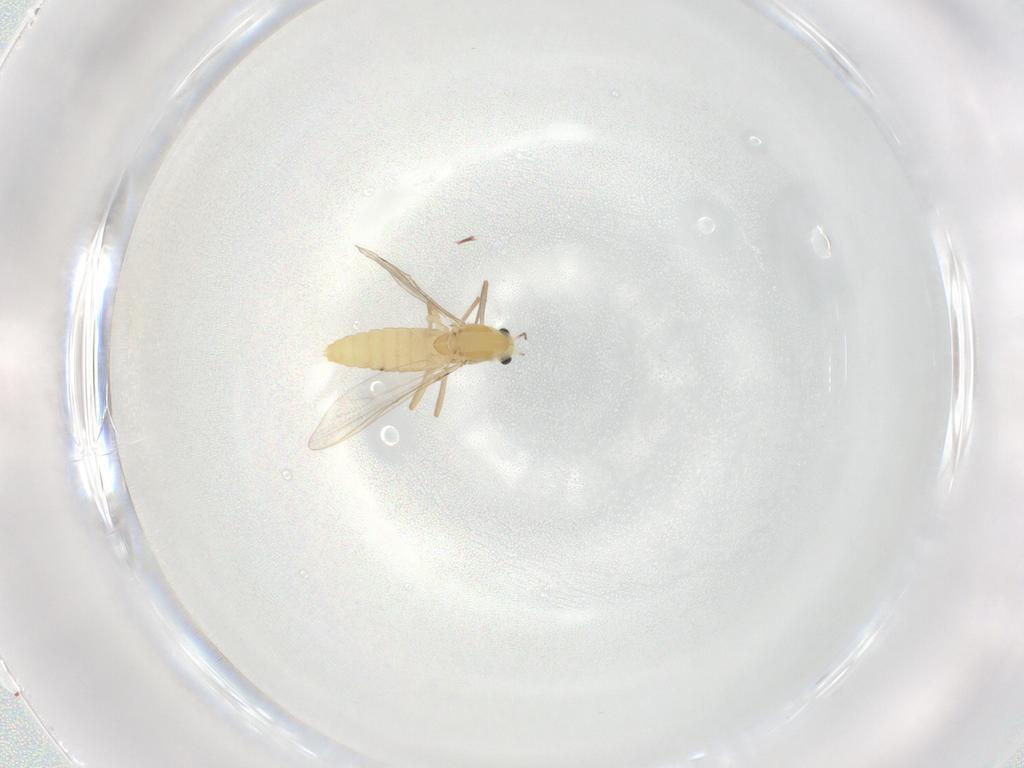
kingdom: Animalia
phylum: Arthropoda
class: Insecta
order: Diptera
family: Chironomidae
